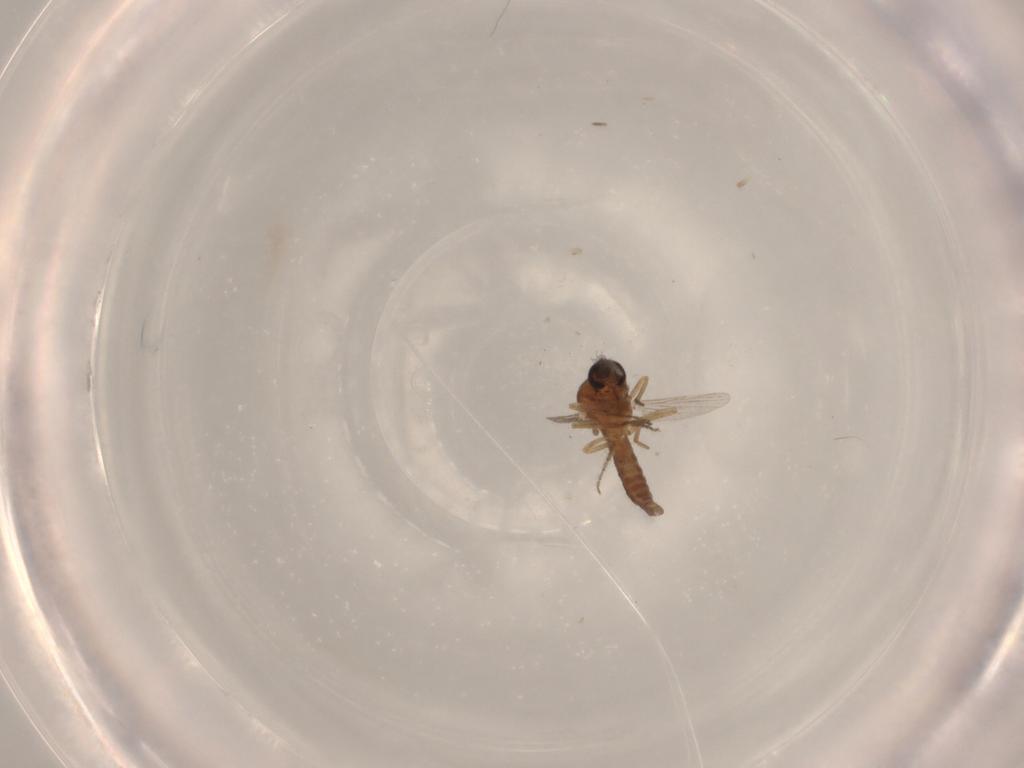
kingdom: Animalia
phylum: Arthropoda
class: Insecta
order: Diptera
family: Ceratopogonidae
